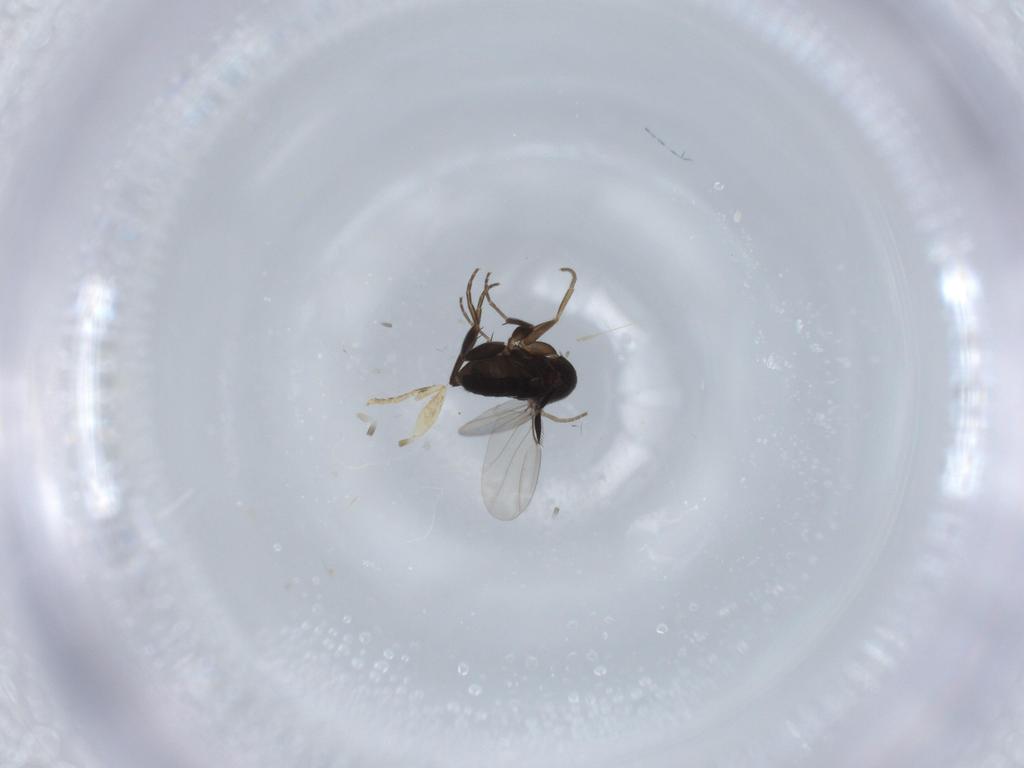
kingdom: Animalia
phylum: Arthropoda
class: Insecta
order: Diptera
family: Phoridae
